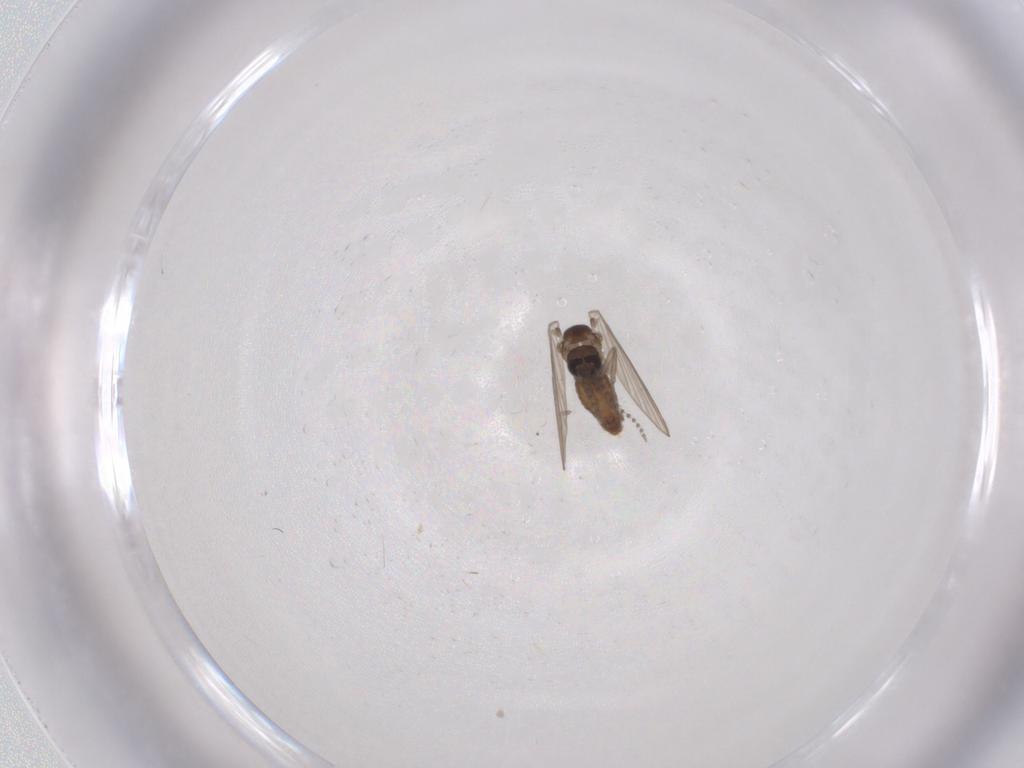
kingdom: Animalia
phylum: Arthropoda
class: Insecta
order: Diptera
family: Psychodidae
